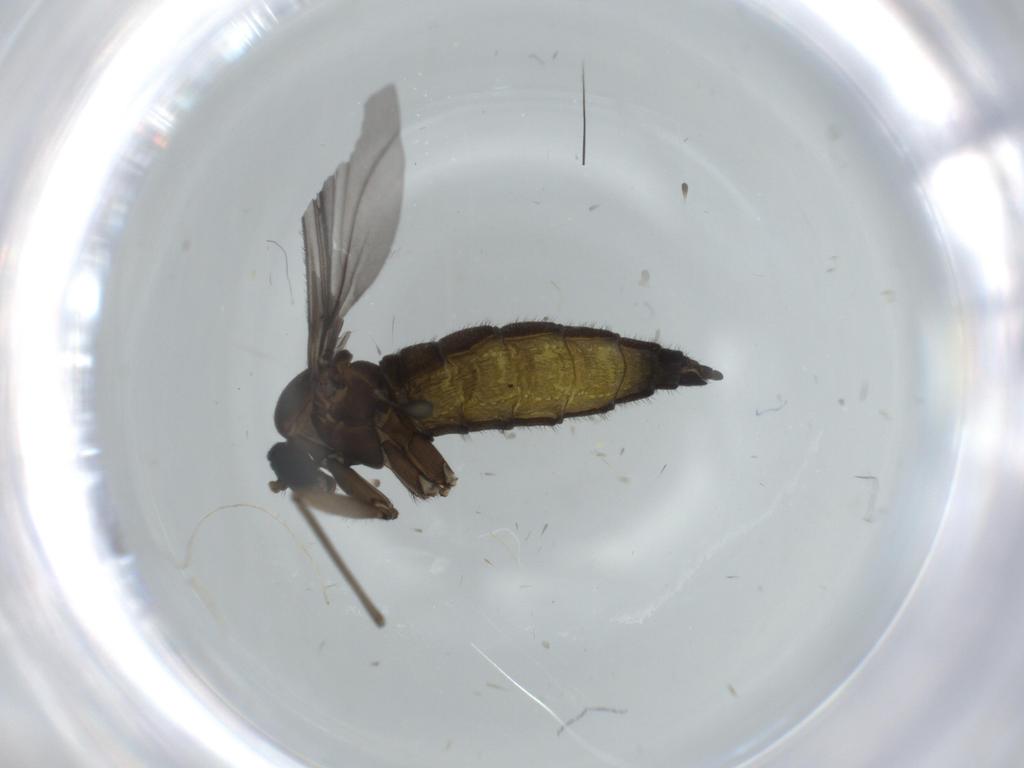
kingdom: Animalia
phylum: Arthropoda
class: Insecta
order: Diptera
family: Sciaridae
